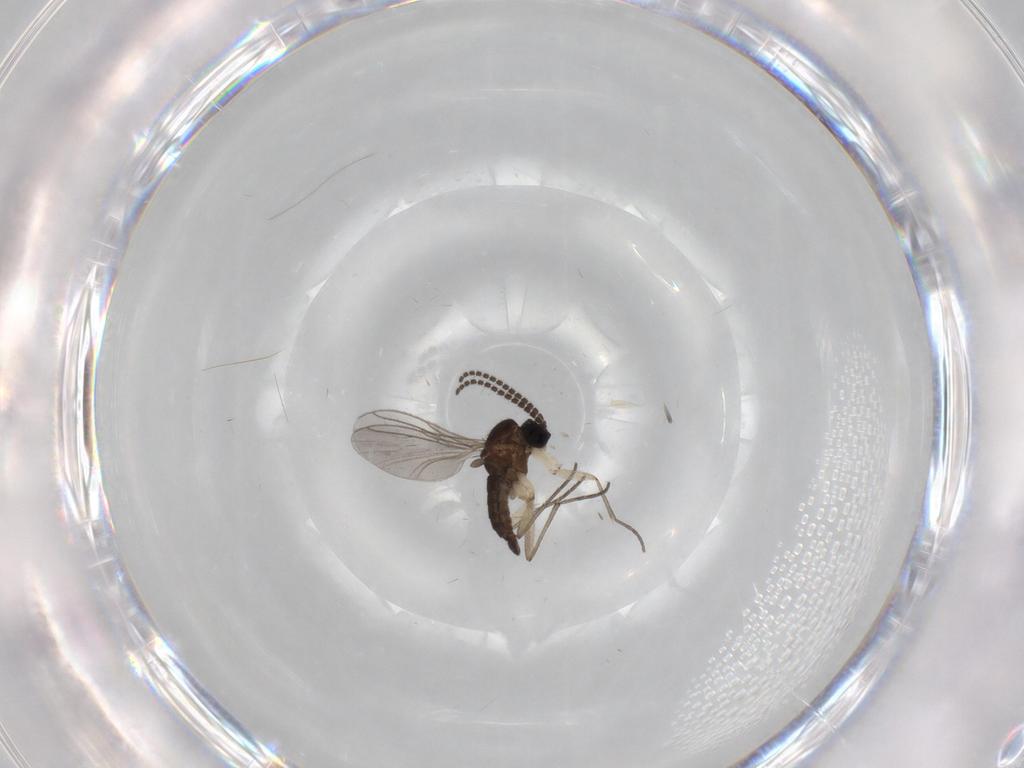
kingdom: Animalia
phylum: Arthropoda
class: Insecta
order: Diptera
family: Sciaridae
